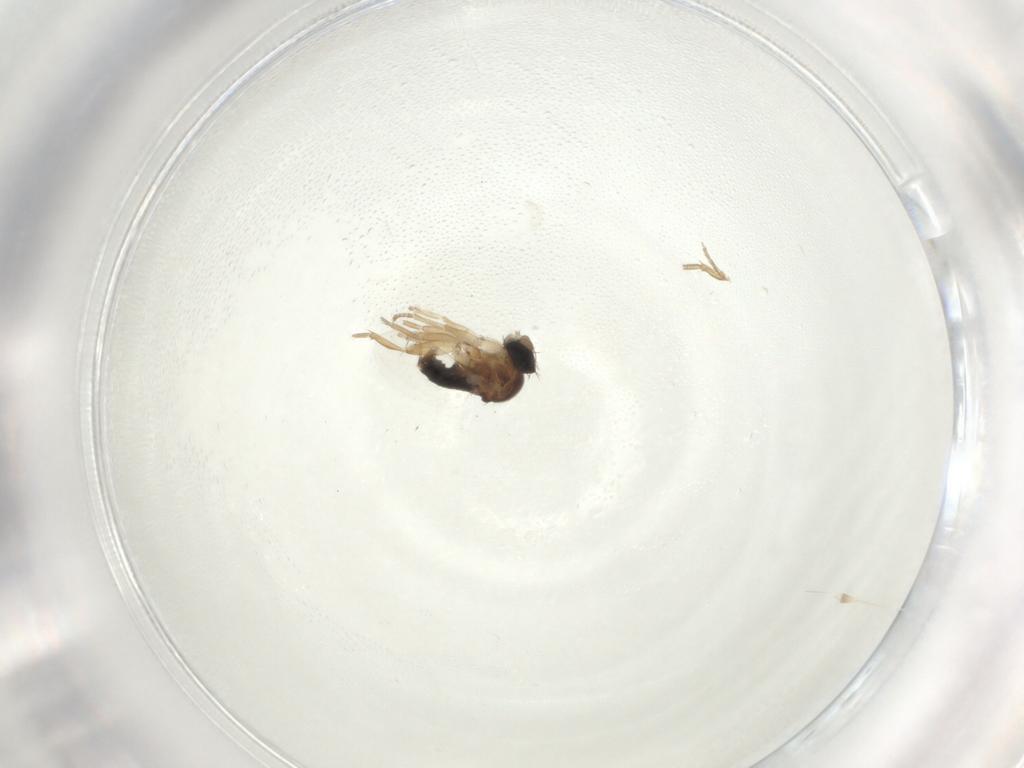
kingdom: Animalia
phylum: Arthropoda
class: Insecta
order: Diptera
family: Phoridae
